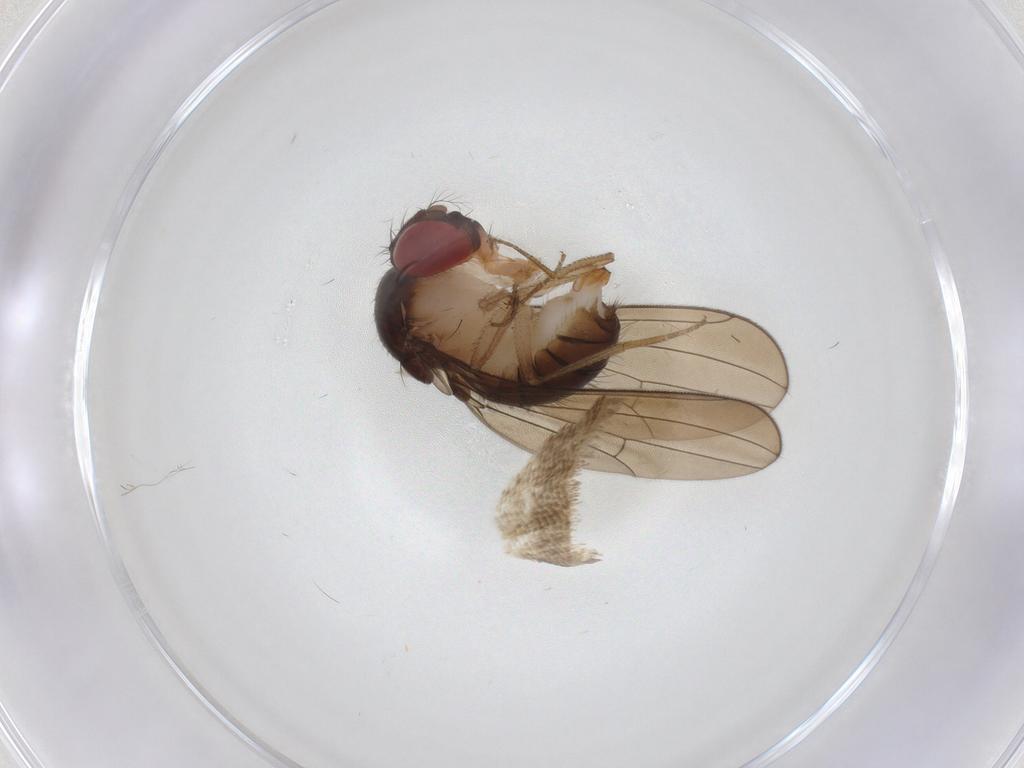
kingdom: Animalia
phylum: Arthropoda
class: Insecta
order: Diptera
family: Drosophilidae
